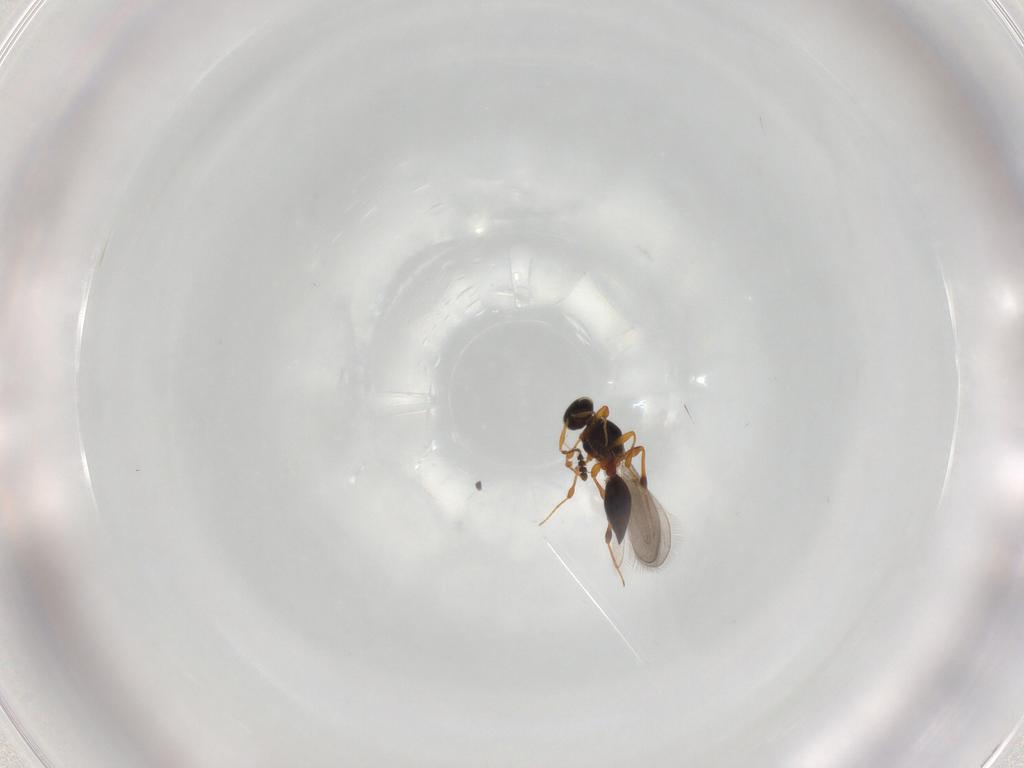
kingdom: Animalia
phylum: Arthropoda
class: Insecta
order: Hymenoptera
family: Platygastridae
